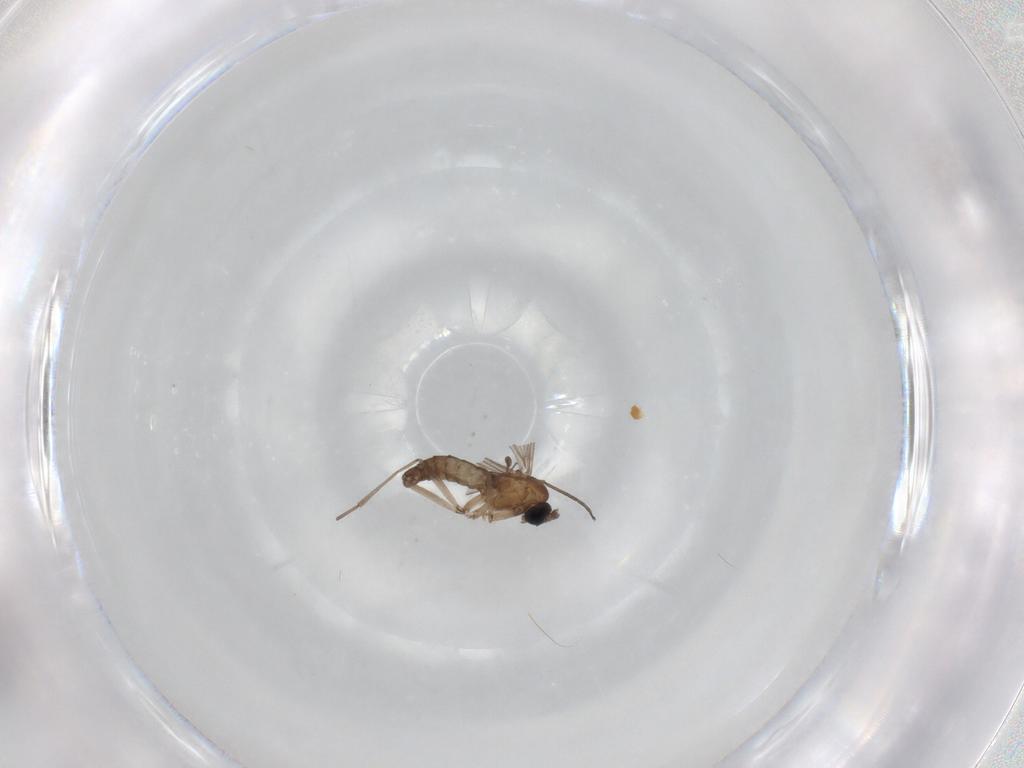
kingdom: Animalia
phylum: Arthropoda
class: Insecta
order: Diptera
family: Sciaridae
